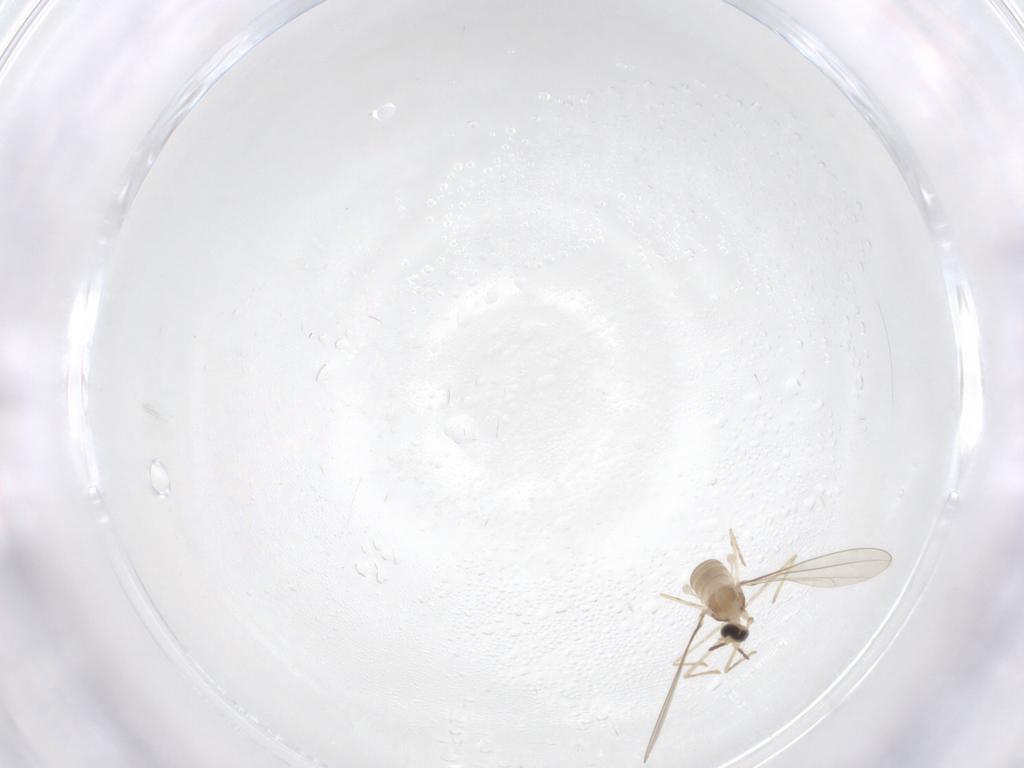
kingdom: Animalia
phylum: Arthropoda
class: Insecta
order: Diptera
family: Cecidomyiidae
